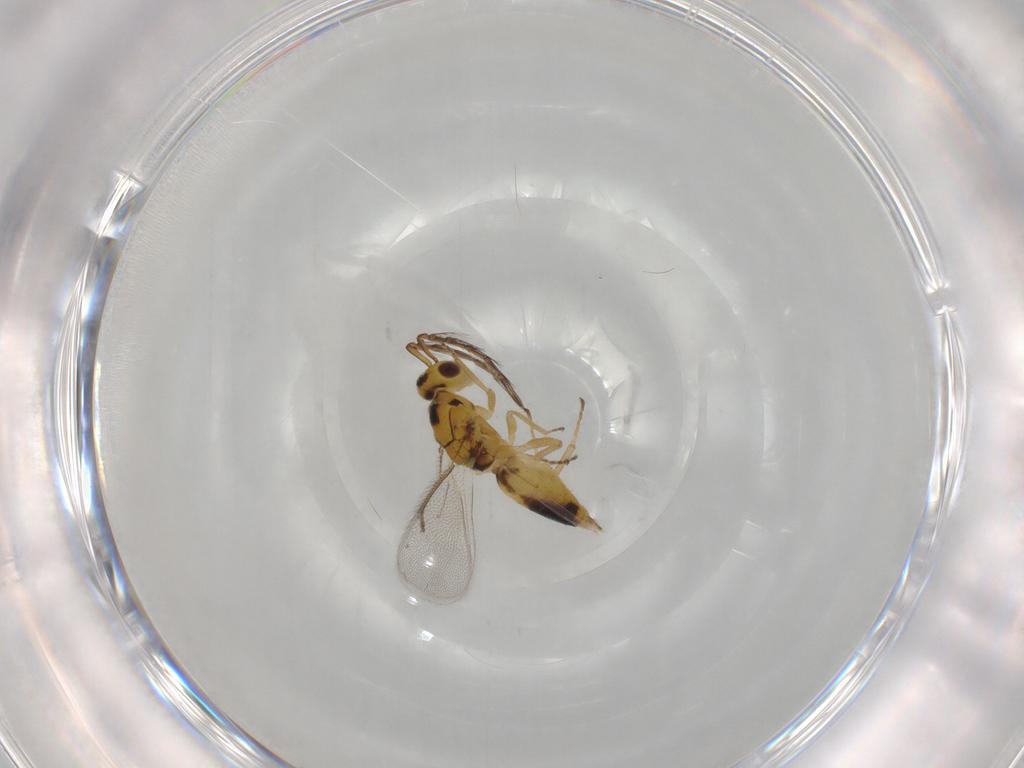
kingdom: Animalia
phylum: Arthropoda
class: Insecta
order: Hymenoptera
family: Eulophidae
